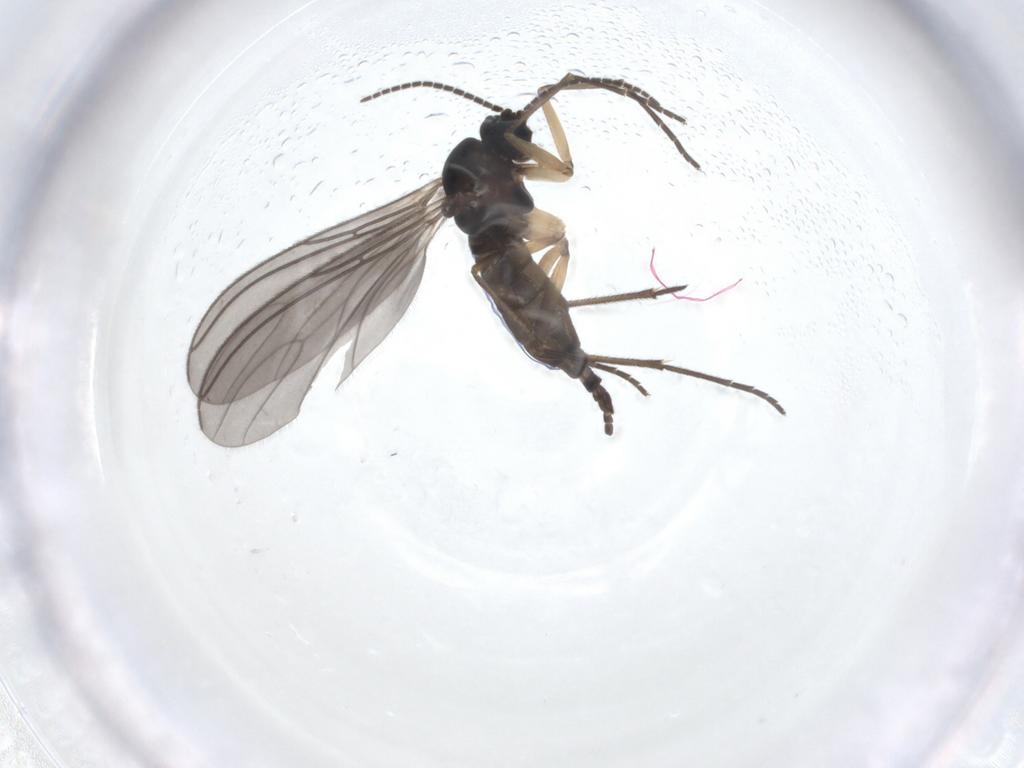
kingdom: Animalia
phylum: Arthropoda
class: Insecta
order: Diptera
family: Sciaridae
